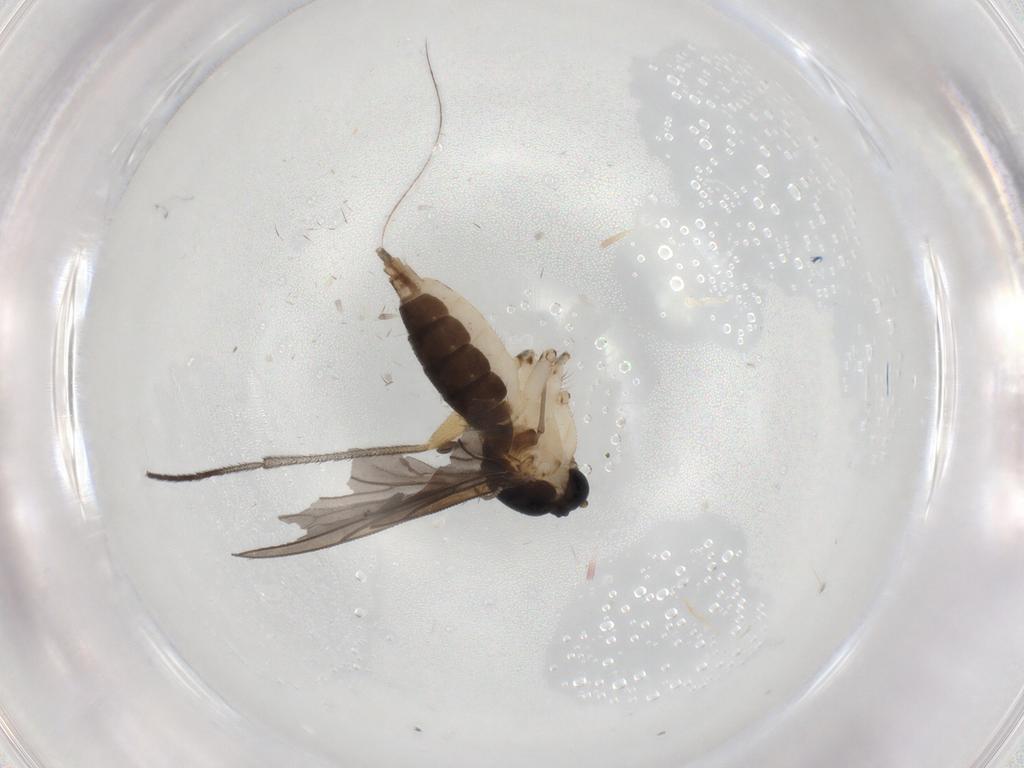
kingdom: Animalia
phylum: Arthropoda
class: Insecta
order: Diptera
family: Sciaridae
